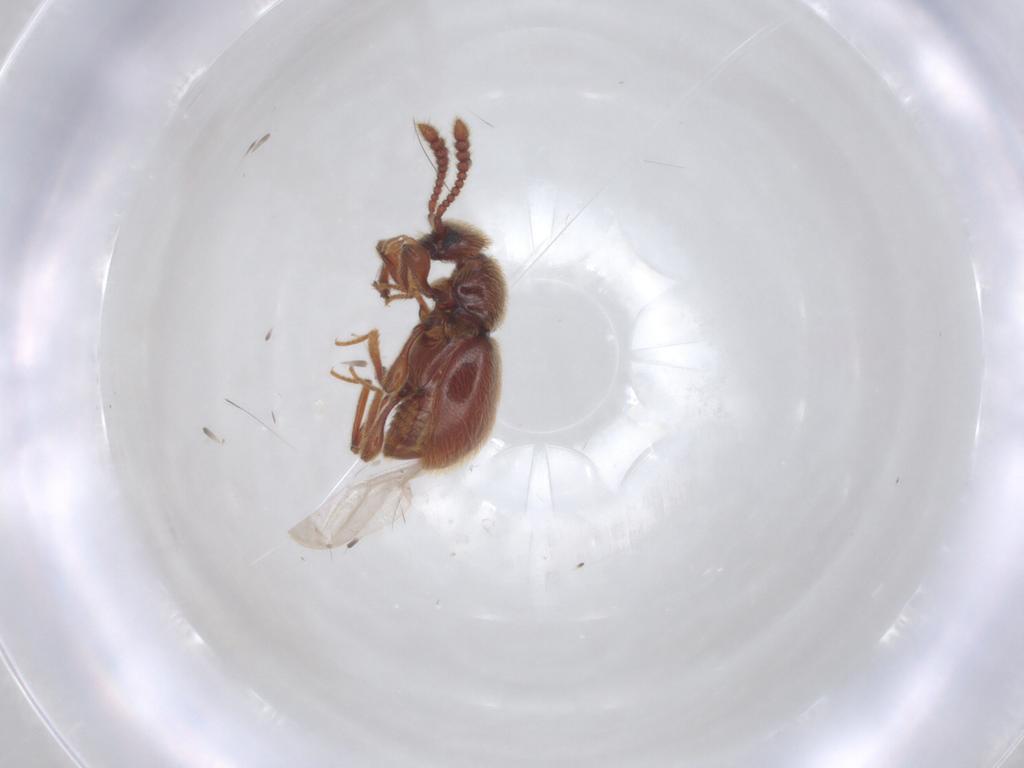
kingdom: Animalia
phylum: Arthropoda
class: Insecta
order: Coleoptera
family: Staphylinidae
